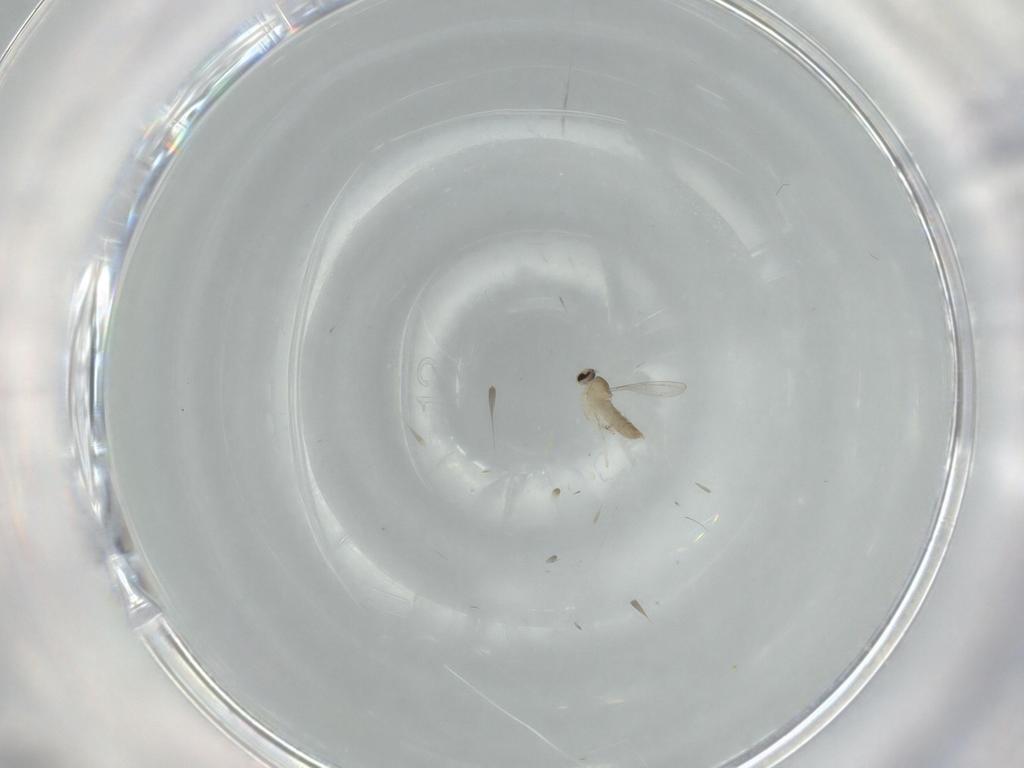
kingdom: Animalia
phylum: Arthropoda
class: Insecta
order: Diptera
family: Cecidomyiidae
